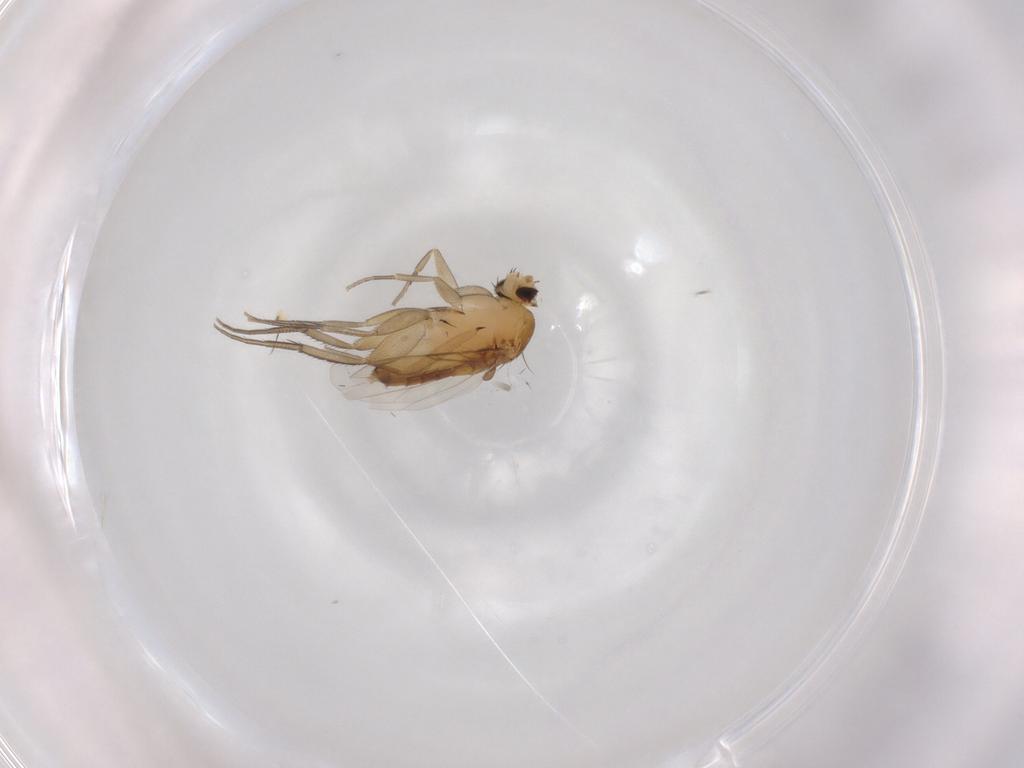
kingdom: Animalia
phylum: Arthropoda
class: Insecta
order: Diptera
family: Phoridae
